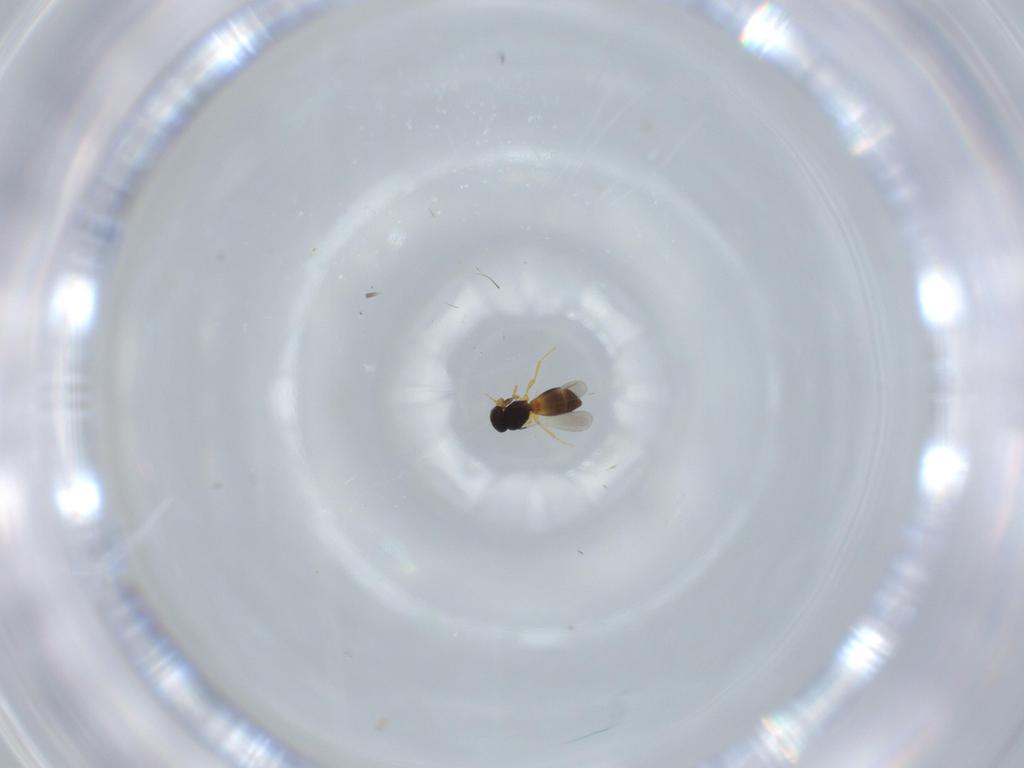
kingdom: Animalia
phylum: Arthropoda
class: Insecta
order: Hymenoptera
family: Platygastridae
